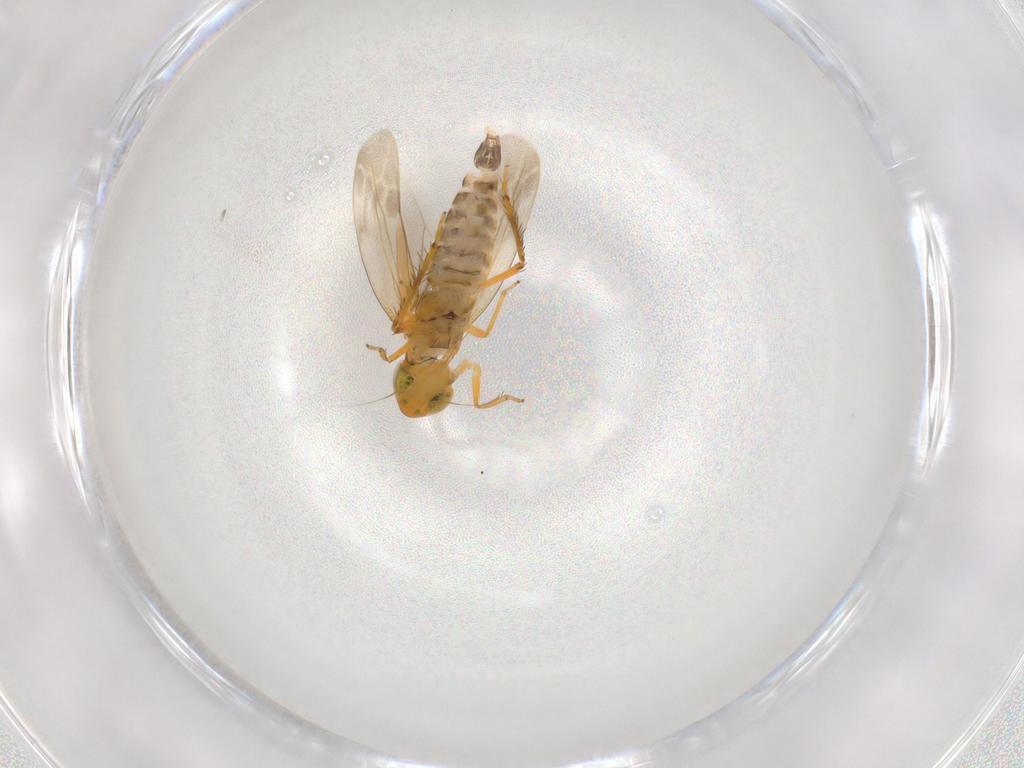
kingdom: Animalia
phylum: Arthropoda
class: Insecta
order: Hemiptera
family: Cicadellidae
